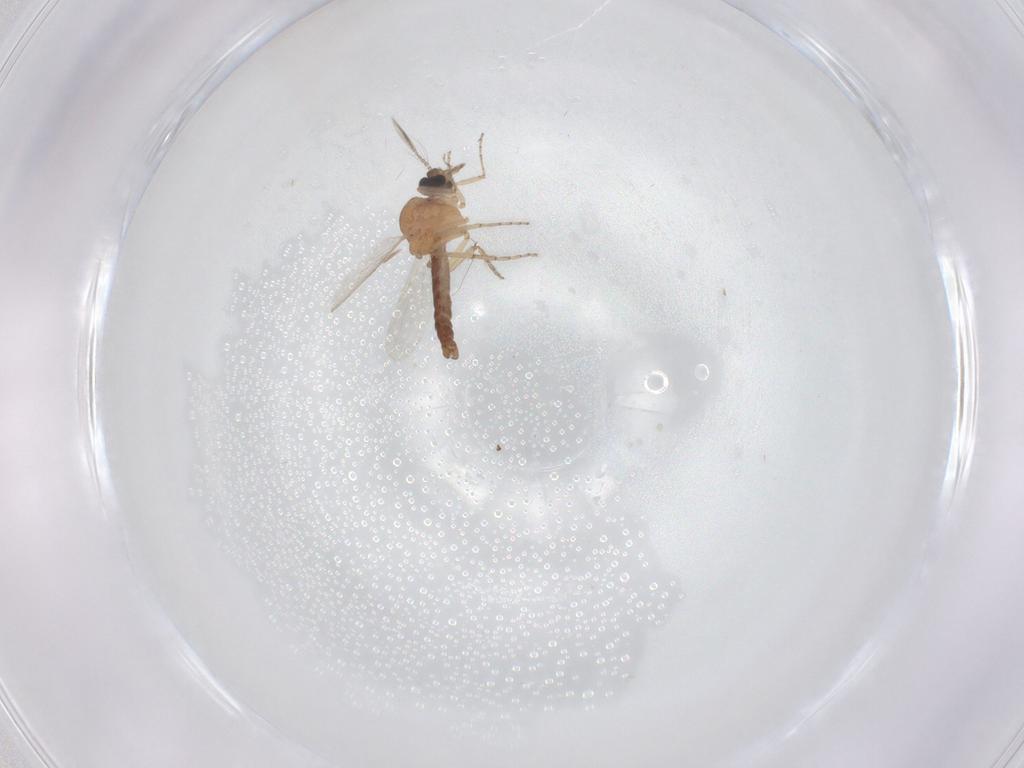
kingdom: Animalia
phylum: Arthropoda
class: Insecta
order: Diptera
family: Ceratopogonidae
